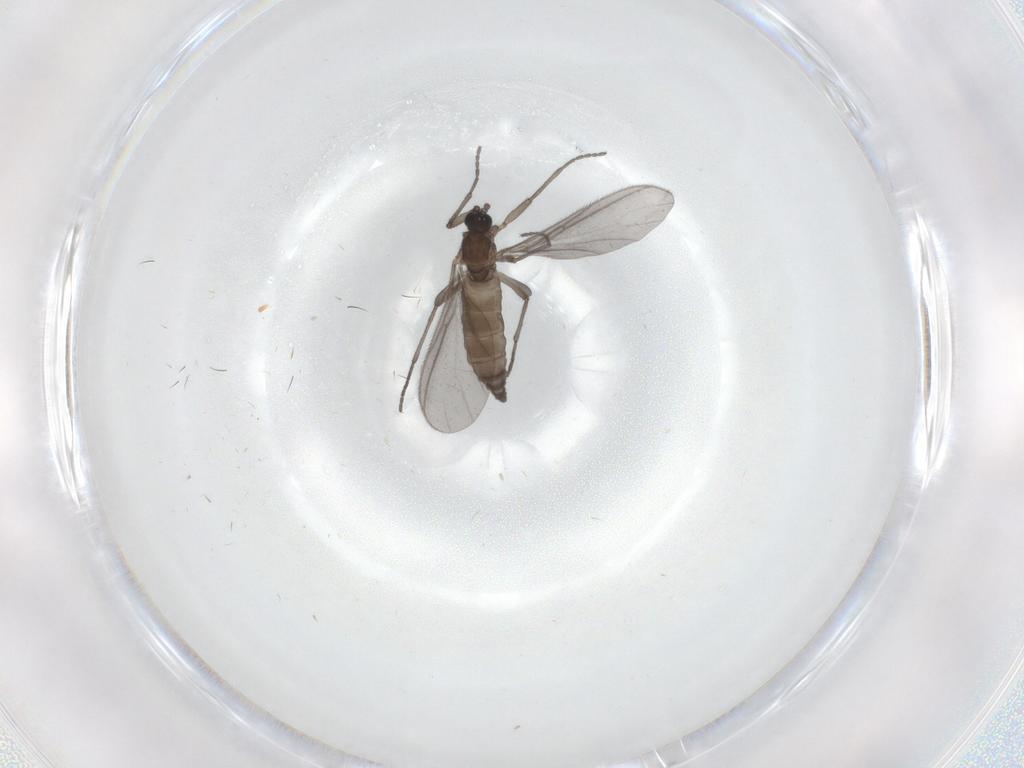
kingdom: Animalia
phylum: Arthropoda
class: Insecta
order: Diptera
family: Sciaridae
